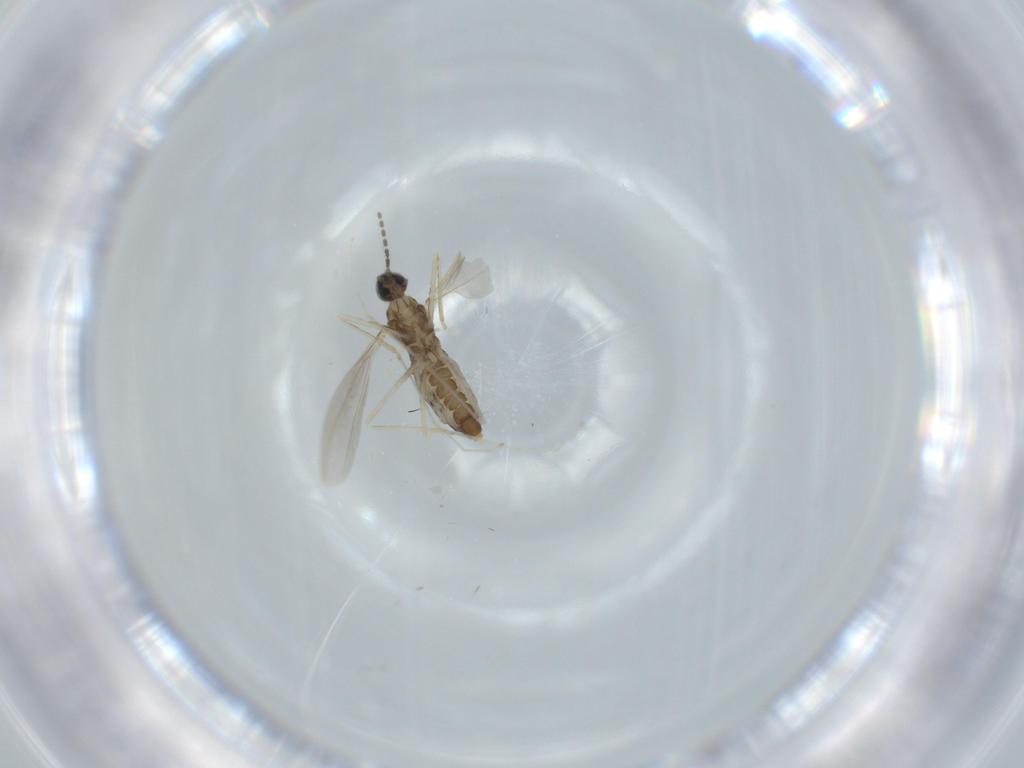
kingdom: Animalia
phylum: Arthropoda
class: Insecta
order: Diptera
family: Cecidomyiidae
